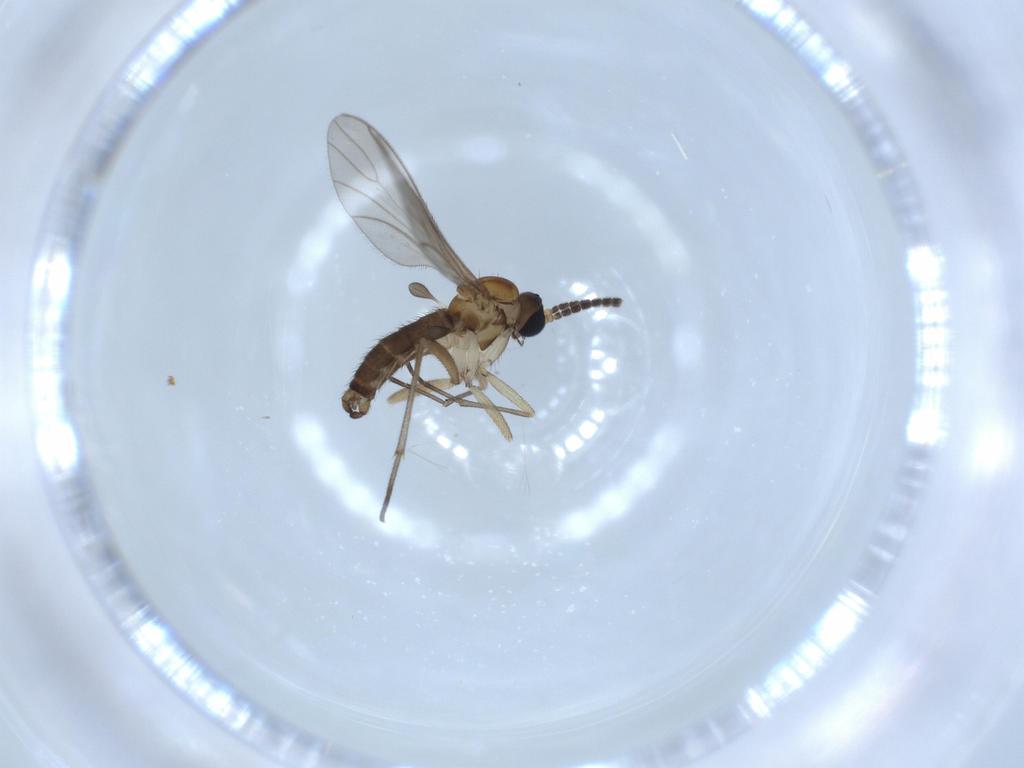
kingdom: Animalia
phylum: Arthropoda
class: Insecta
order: Diptera
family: Sciaridae
